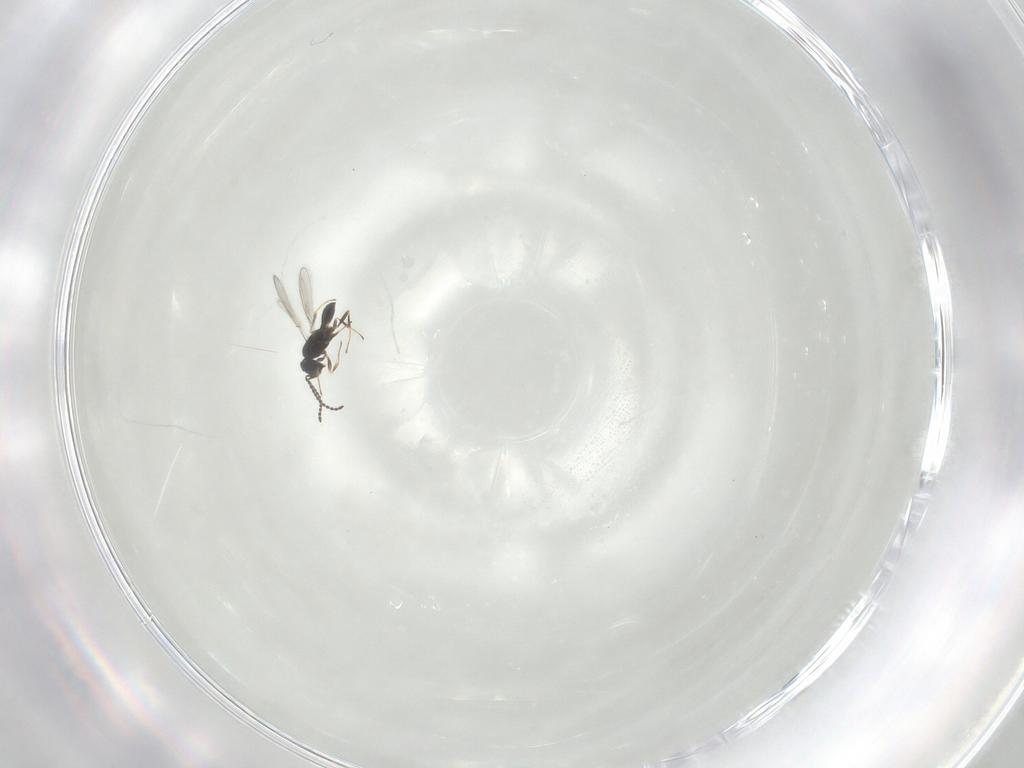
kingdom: Animalia
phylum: Arthropoda
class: Insecta
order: Hymenoptera
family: Scelionidae
